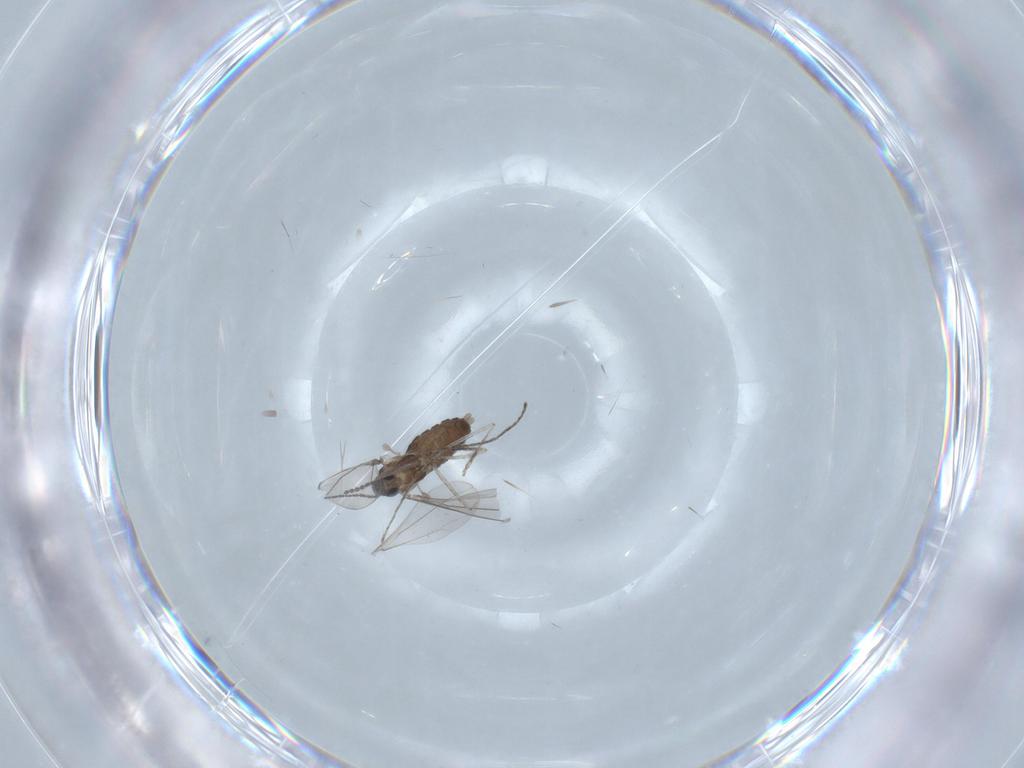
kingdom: Animalia
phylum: Arthropoda
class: Insecta
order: Diptera
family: Cecidomyiidae
